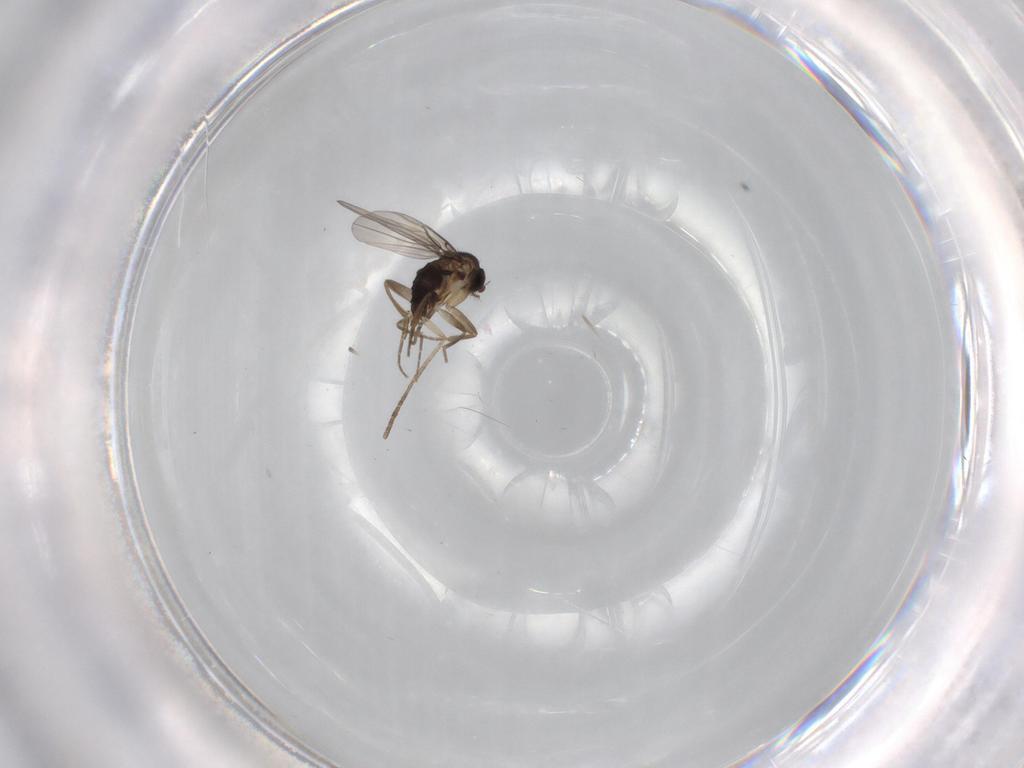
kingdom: Animalia
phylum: Arthropoda
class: Insecta
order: Diptera
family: Phoridae
